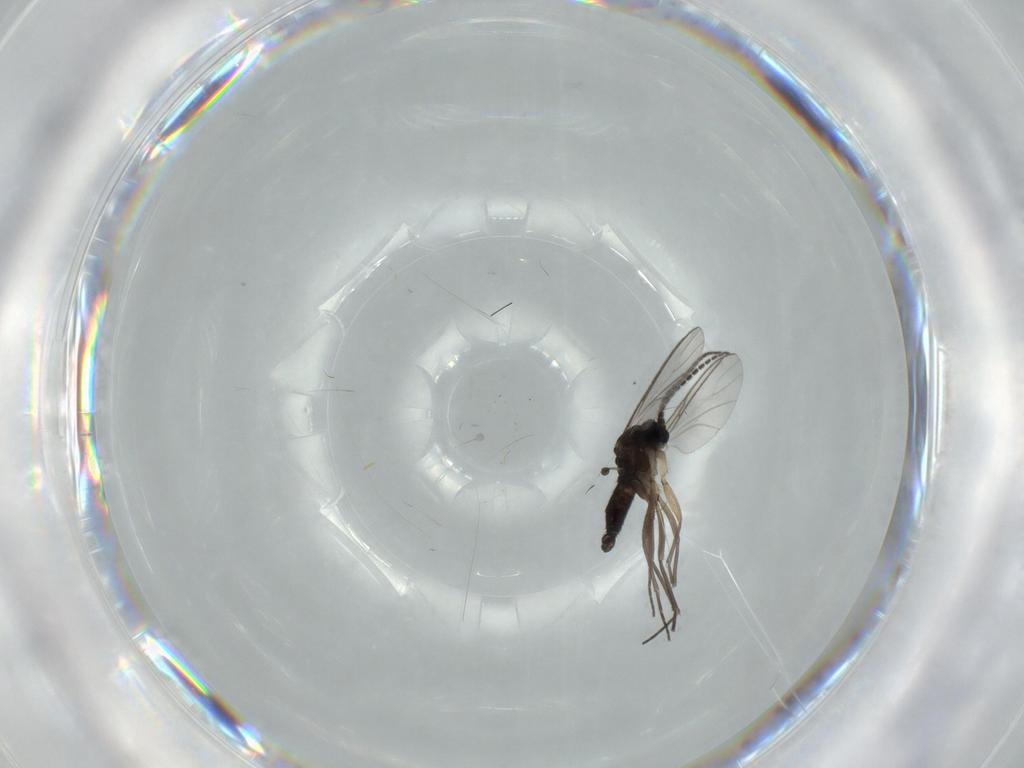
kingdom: Animalia
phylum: Arthropoda
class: Insecta
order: Diptera
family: Sciaridae
